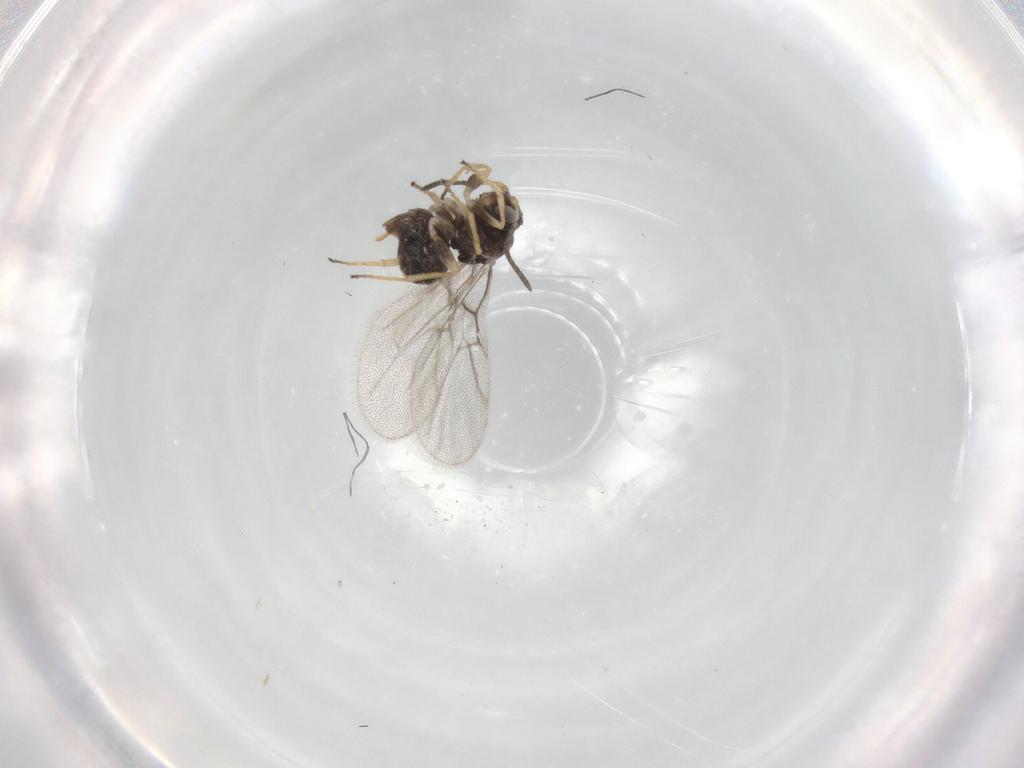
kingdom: Animalia
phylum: Arthropoda
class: Insecta
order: Hymenoptera
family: Cynipidae
